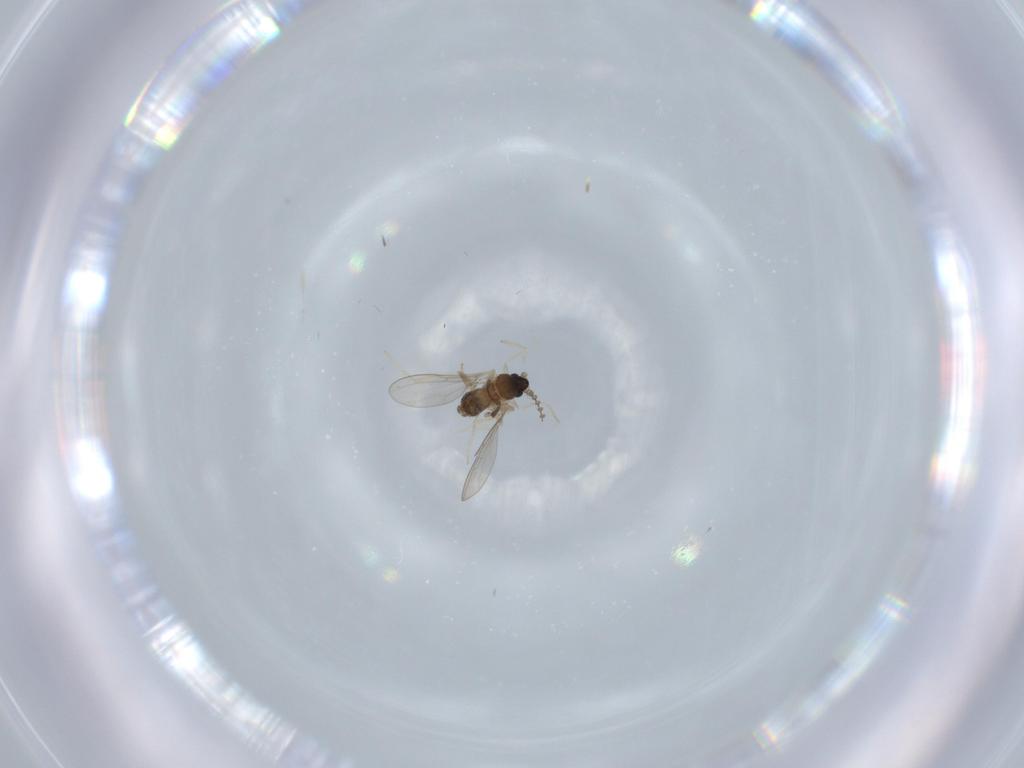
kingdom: Animalia
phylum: Arthropoda
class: Insecta
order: Diptera
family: Cecidomyiidae
